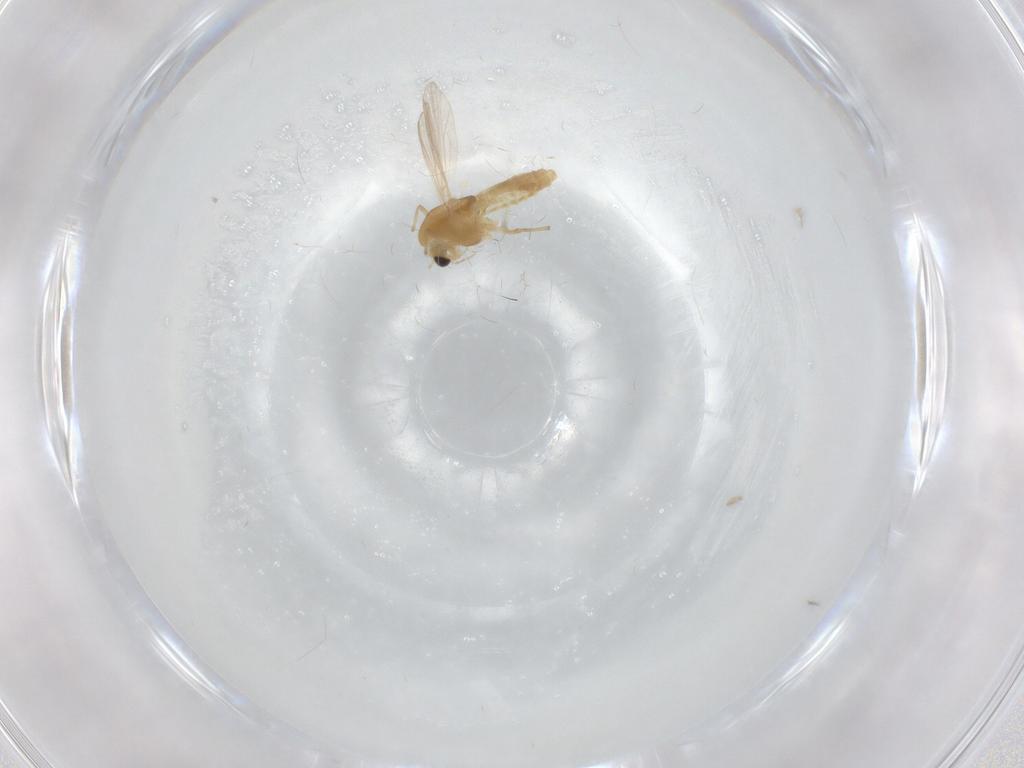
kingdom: Animalia
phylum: Arthropoda
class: Insecta
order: Diptera
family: Chironomidae
